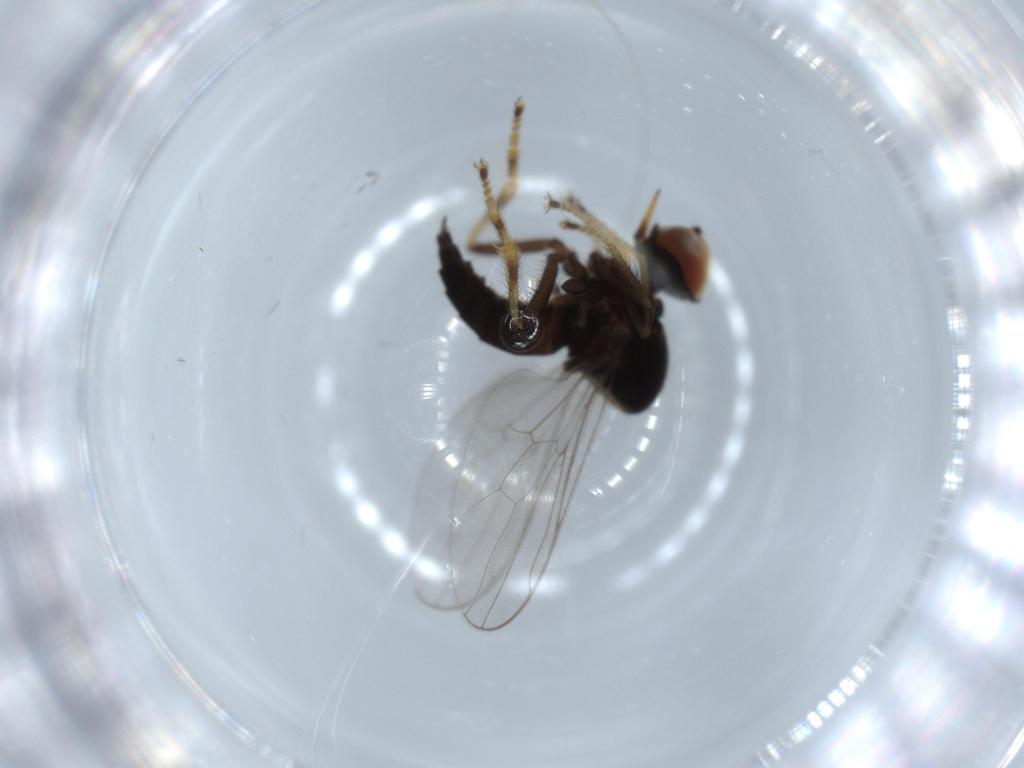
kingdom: Animalia
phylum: Arthropoda
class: Insecta
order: Diptera
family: Hybotidae
